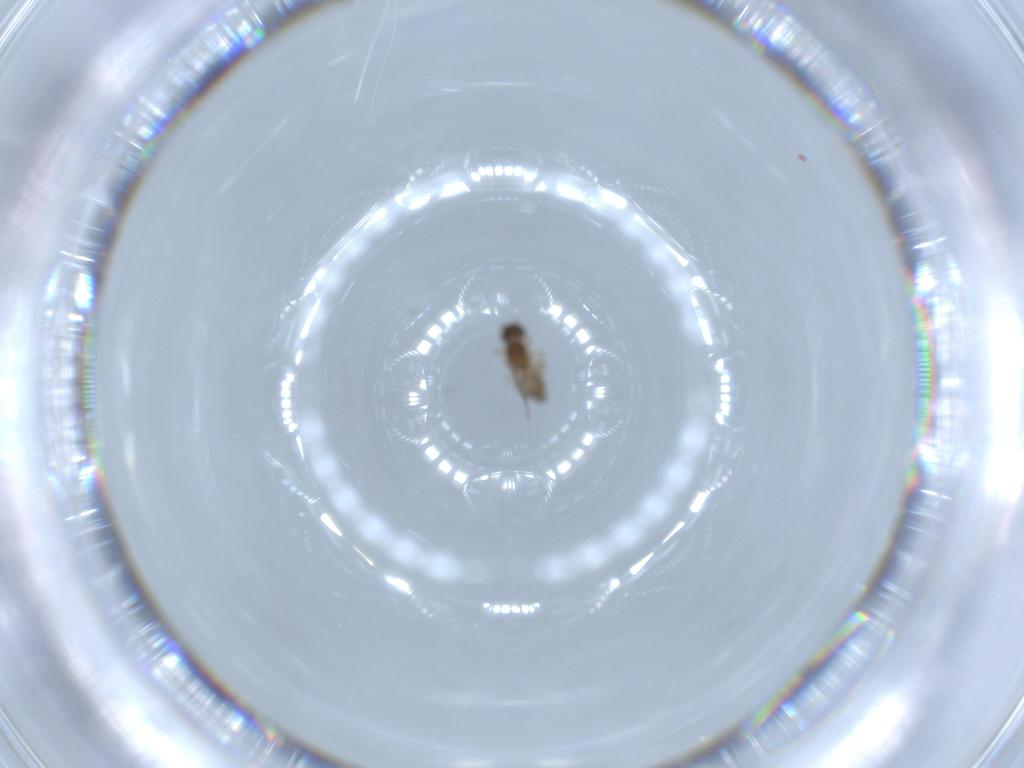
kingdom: Animalia
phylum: Arthropoda
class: Insecta
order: Diptera
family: Cecidomyiidae
